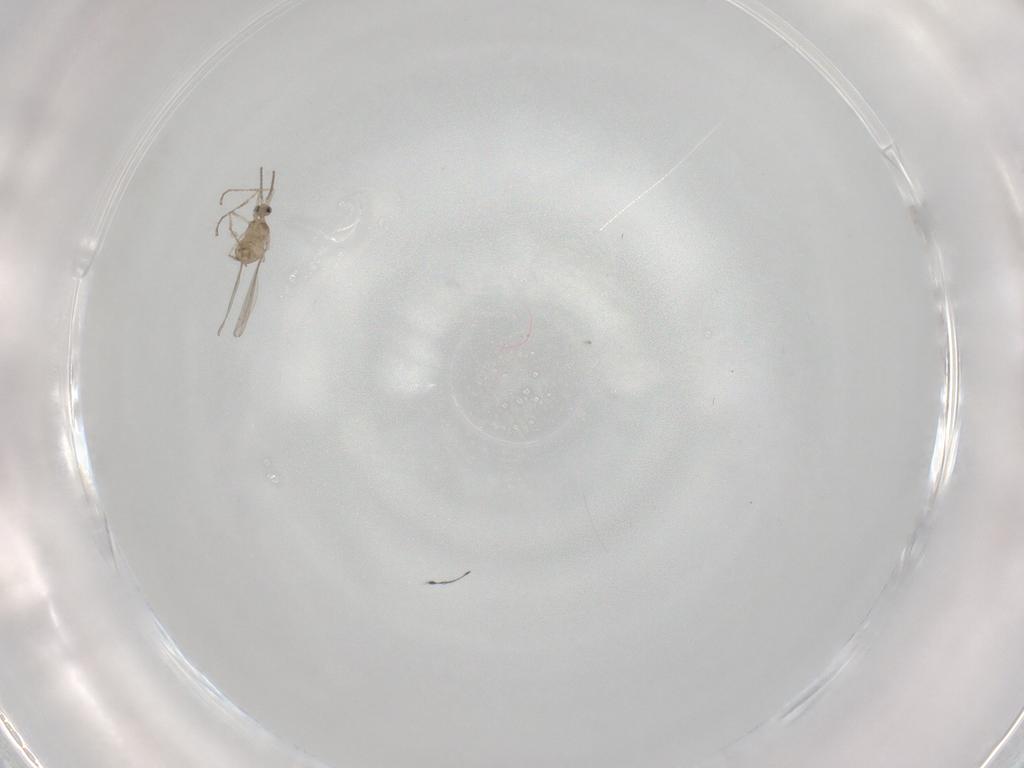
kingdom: Animalia
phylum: Arthropoda
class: Insecta
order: Diptera
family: Cecidomyiidae
